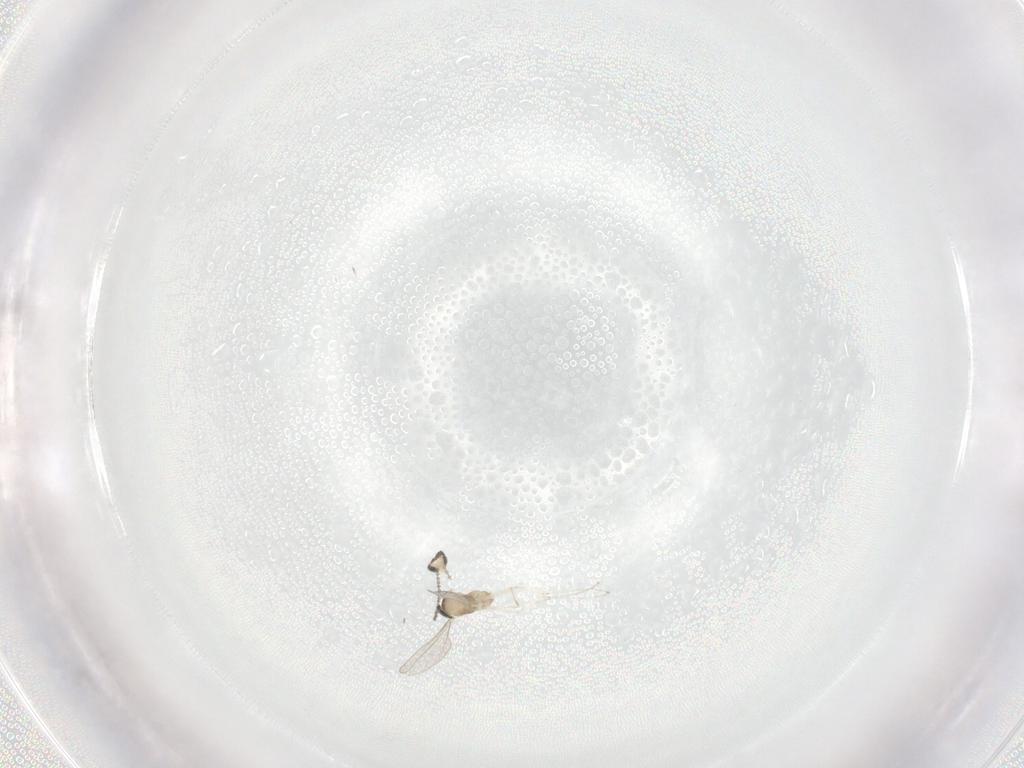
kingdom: Animalia
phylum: Arthropoda
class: Insecta
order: Diptera
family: Cecidomyiidae
